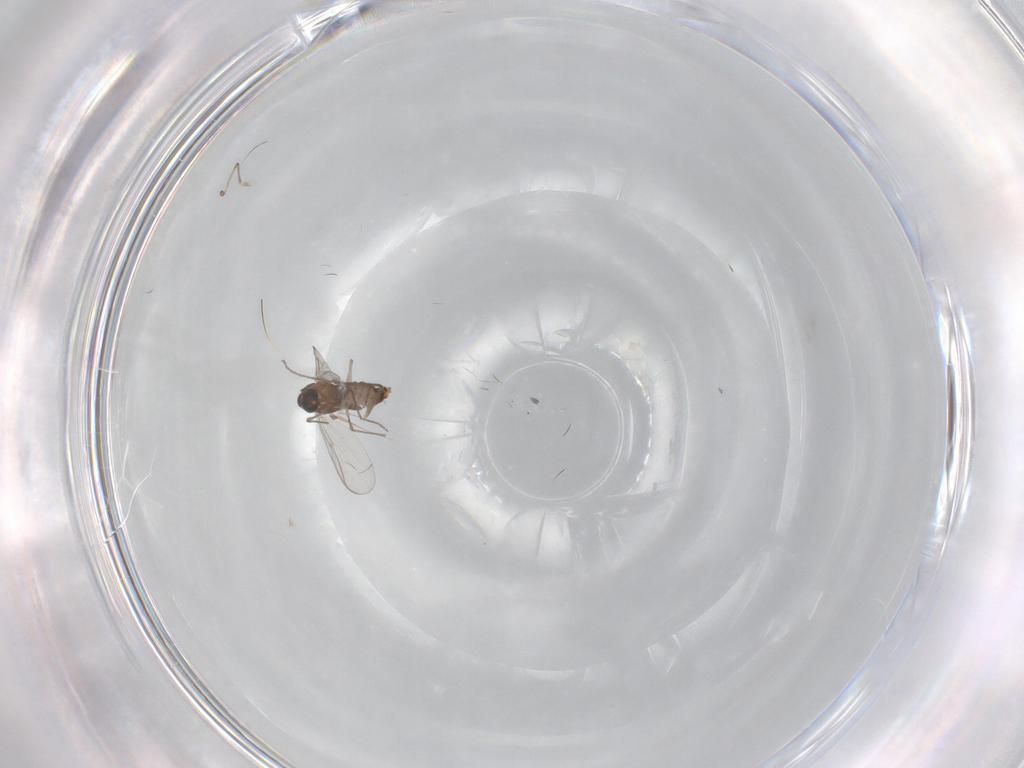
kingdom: Animalia
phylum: Arthropoda
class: Insecta
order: Diptera
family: Chironomidae
